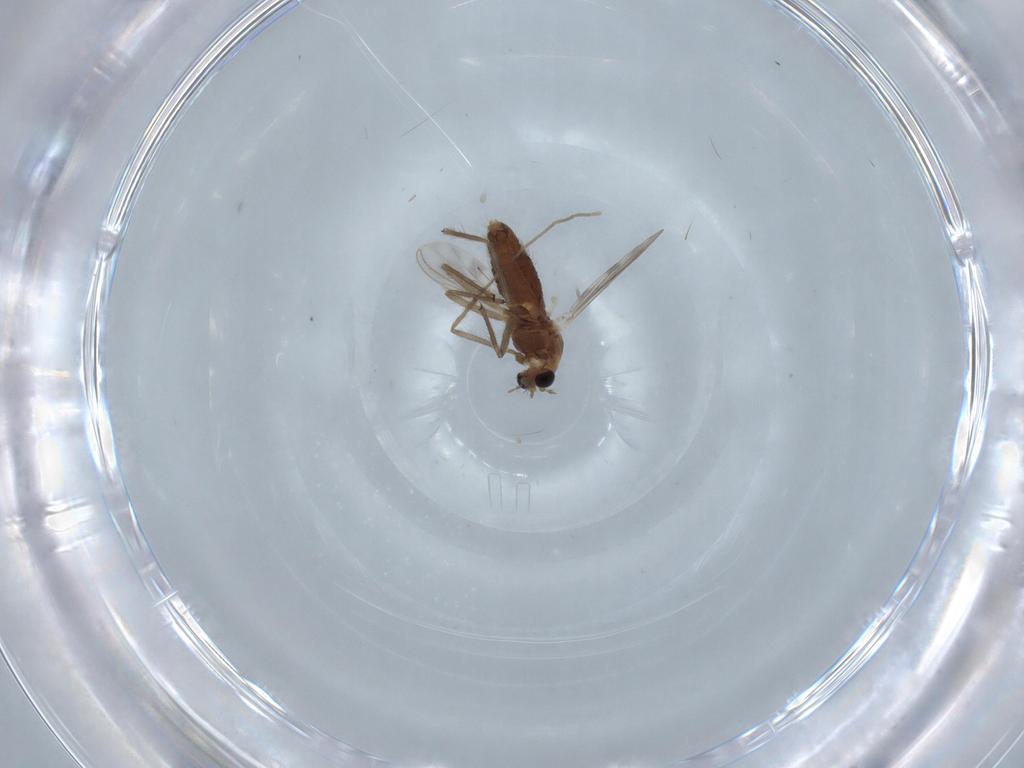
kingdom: Animalia
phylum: Arthropoda
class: Insecta
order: Diptera
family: Chironomidae
